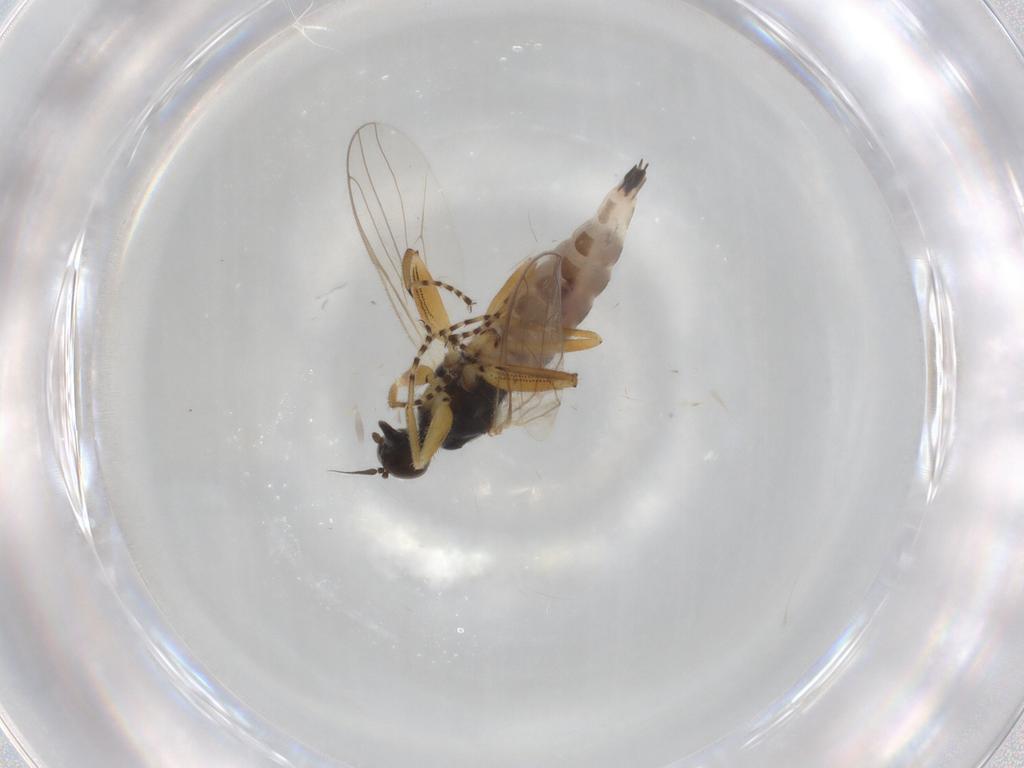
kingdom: Animalia
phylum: Arthropoda
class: Insecta
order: Diptera
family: Hybotidae
